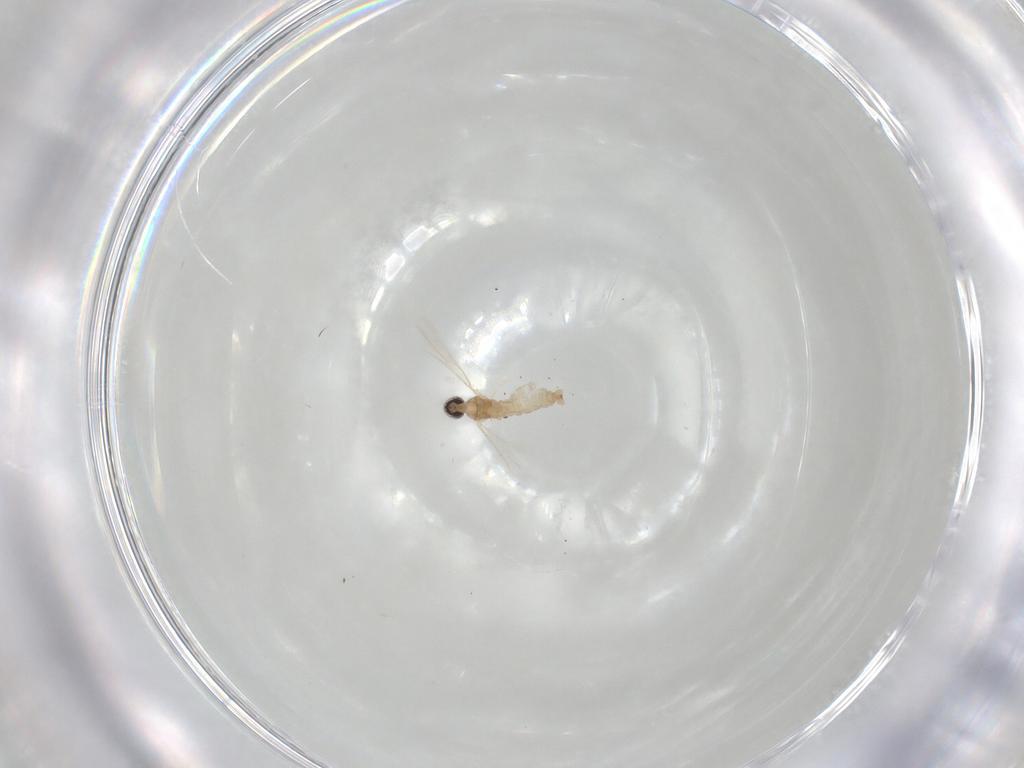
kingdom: Animalia
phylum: Arthropoda
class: Insecta
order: Diptera
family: Cecidomyiidae
